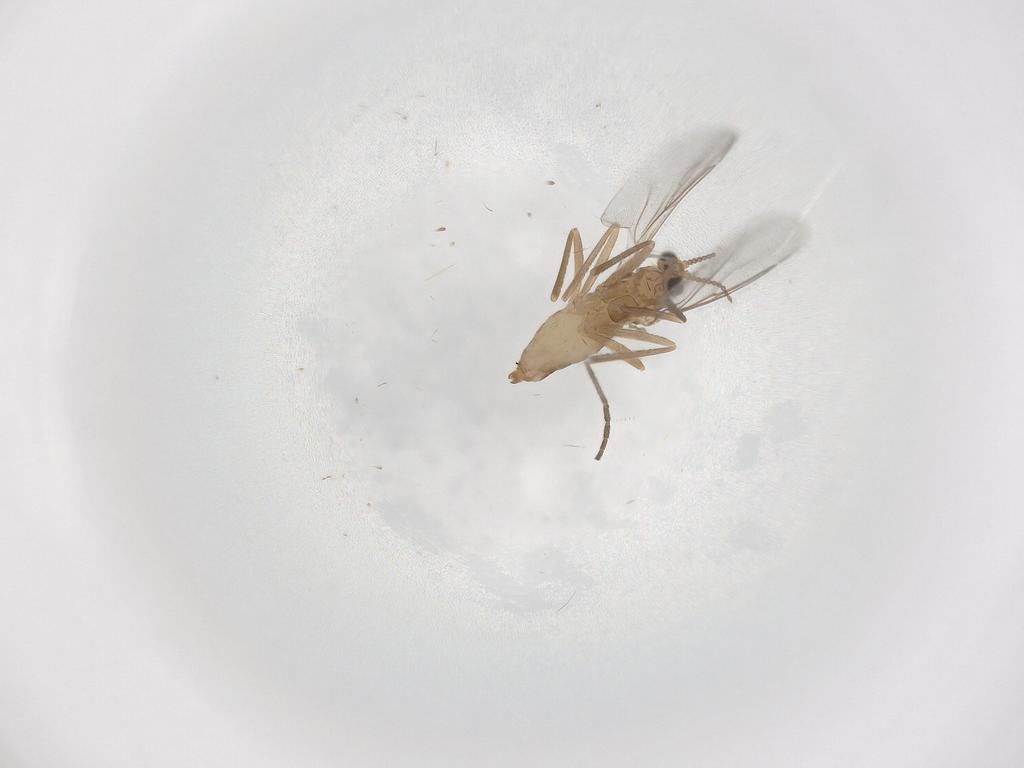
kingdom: Animalia
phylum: Arthropoda
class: Insecta
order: Diptera
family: Cecidomyiidae
